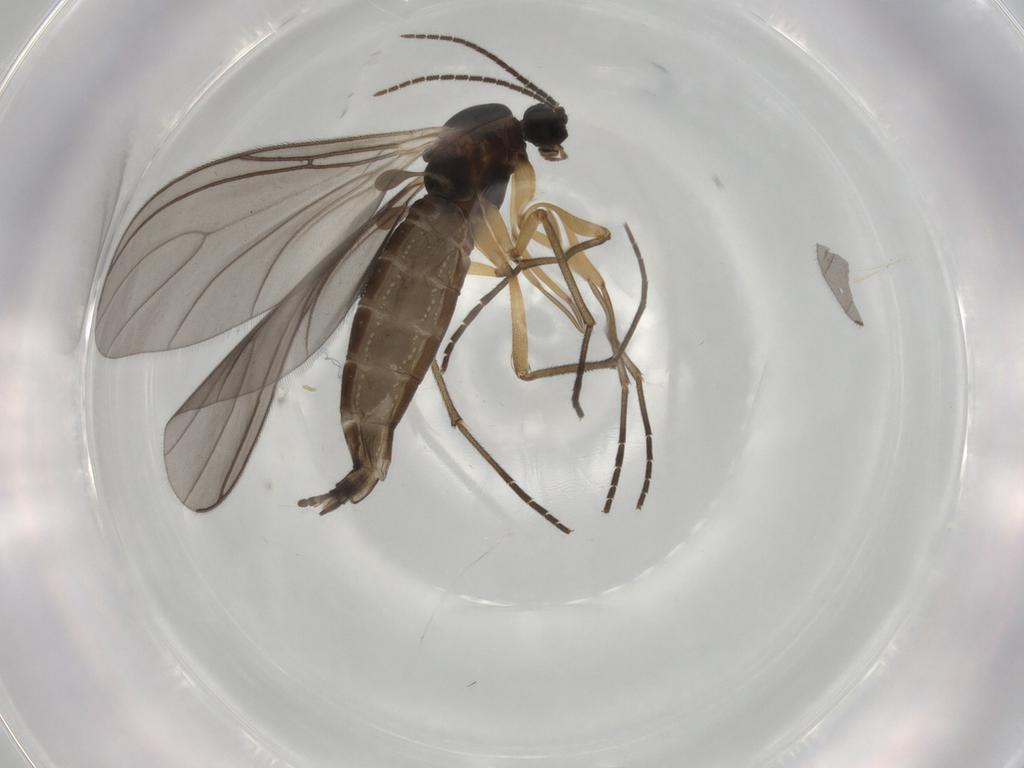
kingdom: Animalia
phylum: Arthropoda
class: Insecta
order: Diptera
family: Sciaridae
